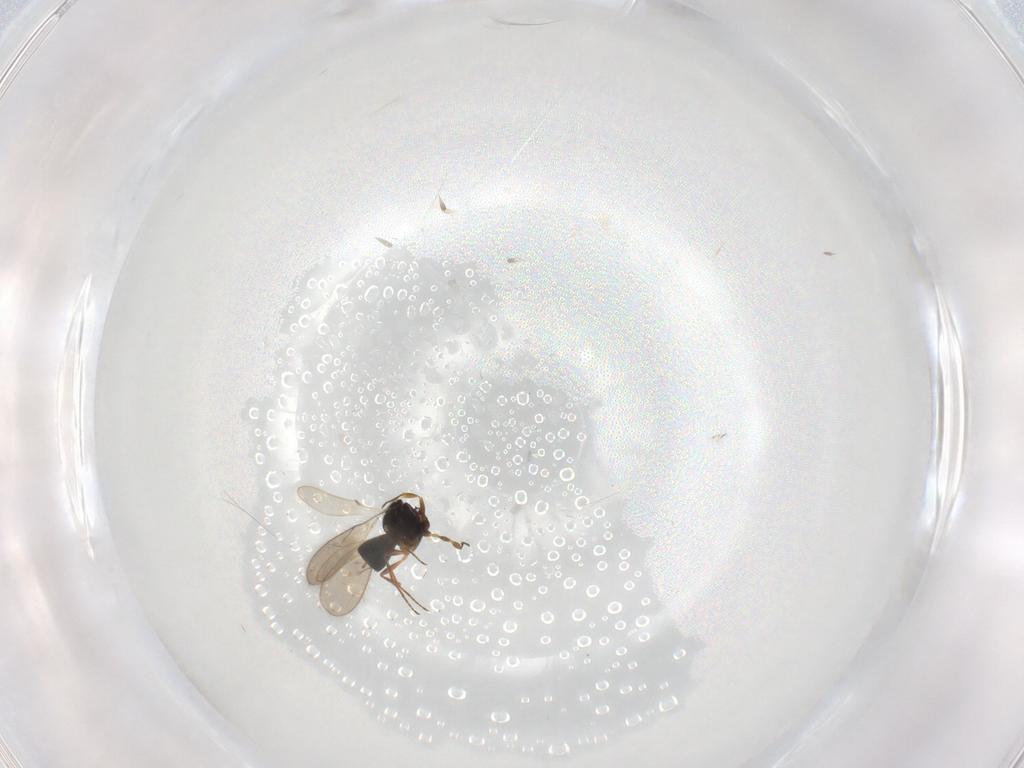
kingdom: Animalia
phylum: Arthropoda
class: Insecta
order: Hymenoptera
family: Scelionidae
